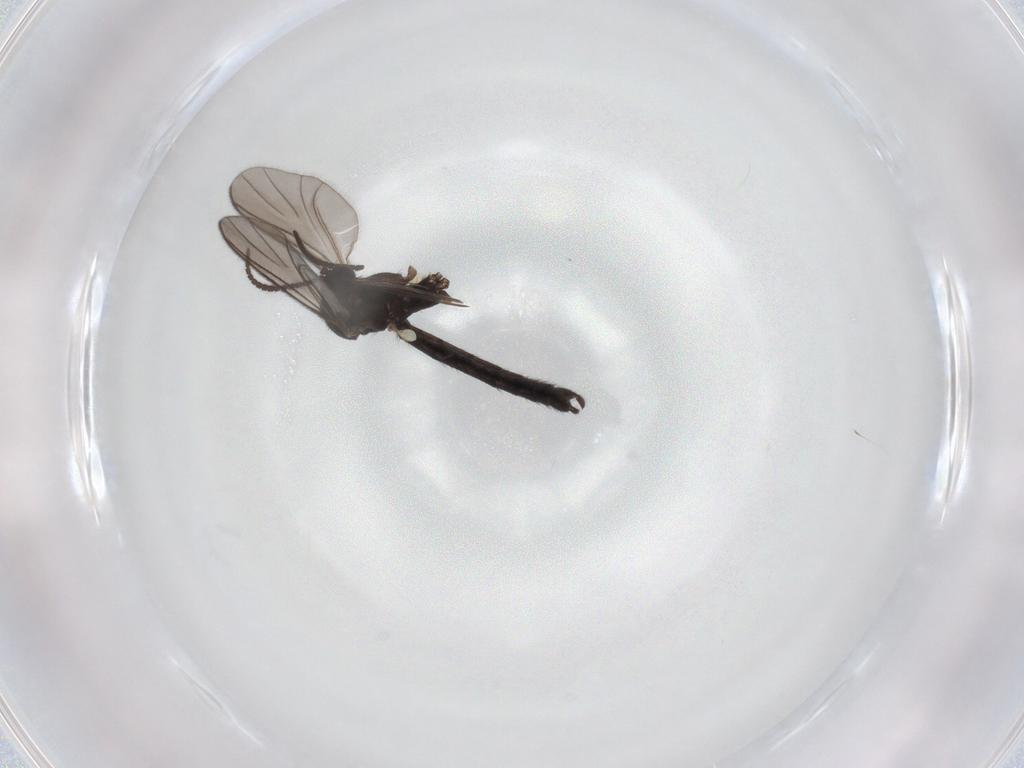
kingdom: Animalia
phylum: Arthropoda
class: Insecta
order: Diptera
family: Keroplatidae
